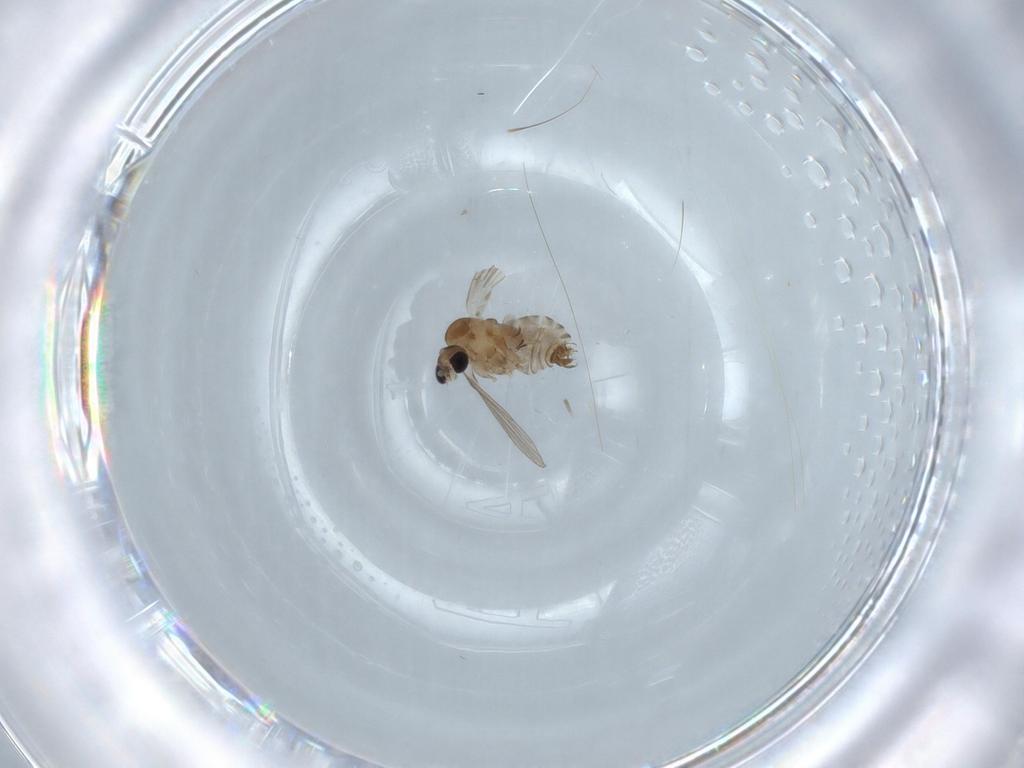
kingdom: Animalia
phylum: Arthropoda
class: Insecta
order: Diptera
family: Psychodidae
